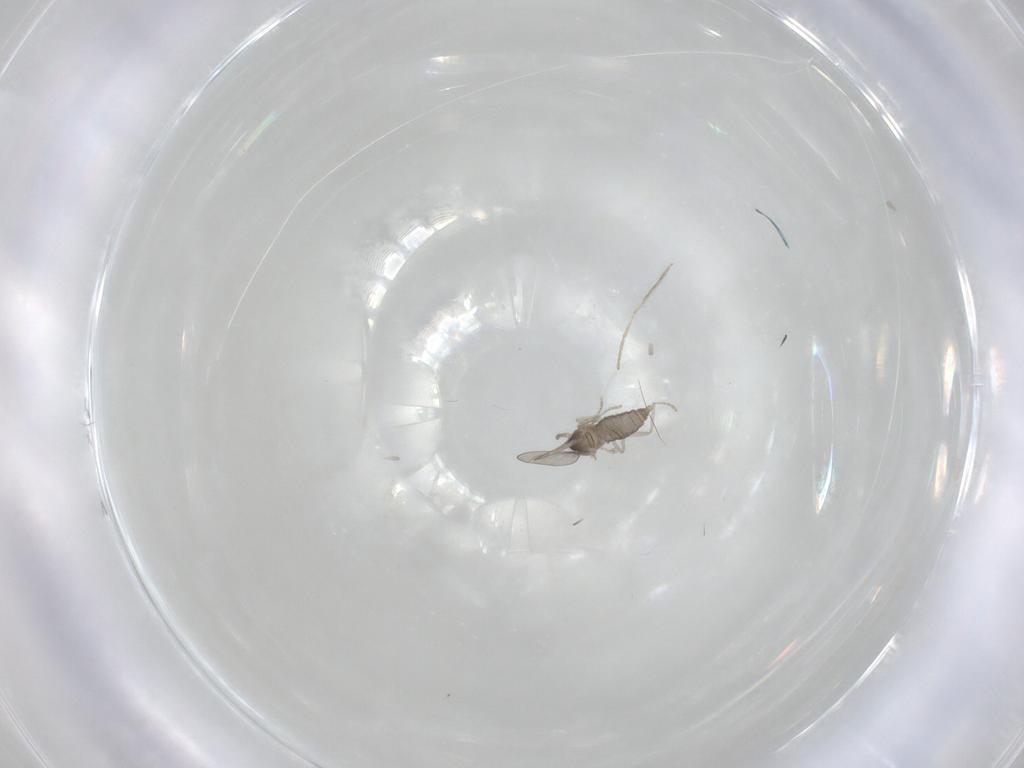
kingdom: Animalia
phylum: Arthropoda
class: Insecta
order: Diptera
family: Cecidomyiidae
